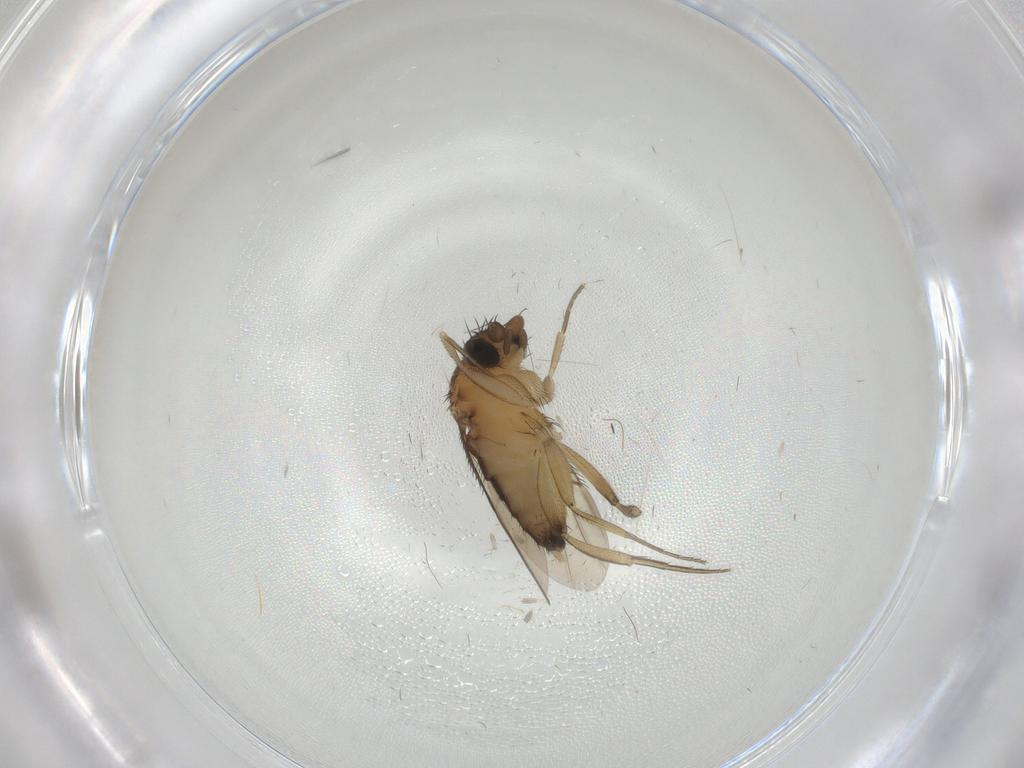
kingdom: Animalia
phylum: Arthropoda
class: Insecta
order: Diptera
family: Phoridae
